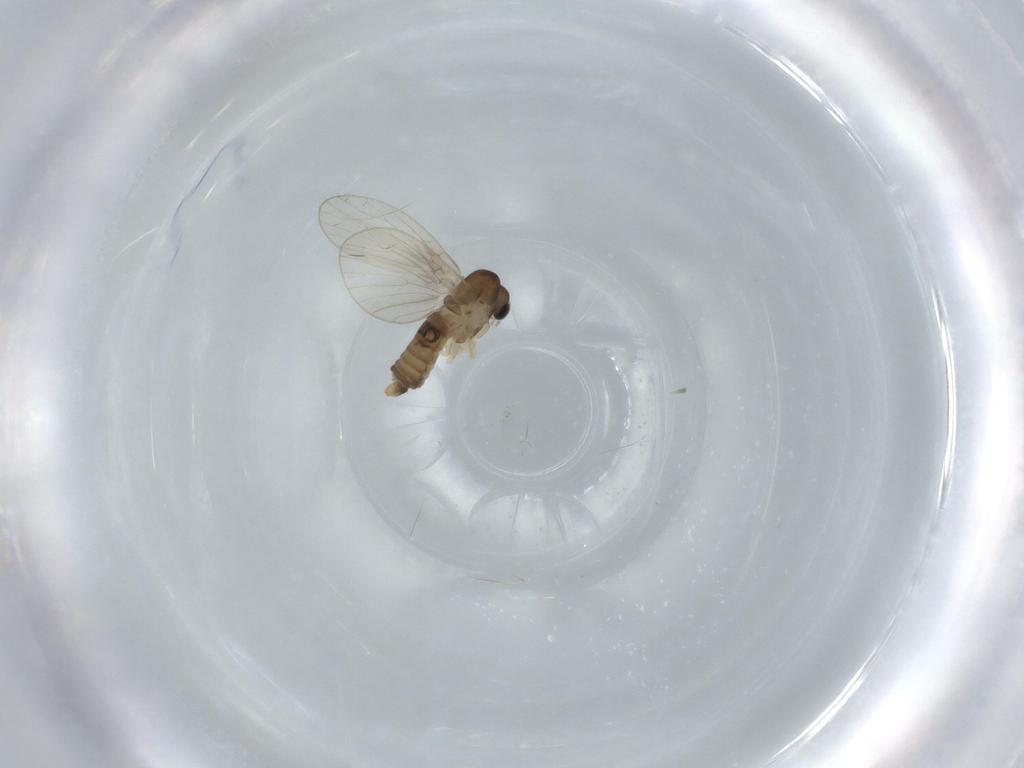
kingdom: Animalia
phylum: Arthropoda
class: Insecta
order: Diptera
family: Psychodidae
